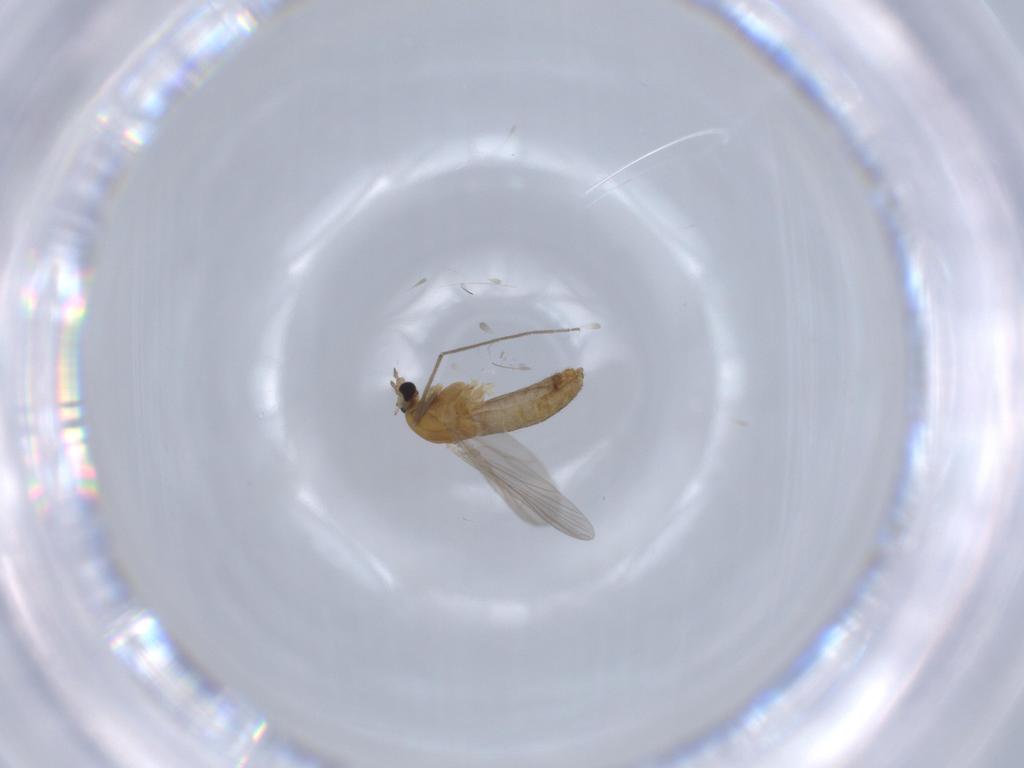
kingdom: Animalia
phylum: Arthropoda
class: Insecta
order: Diptera
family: Chironomidae
